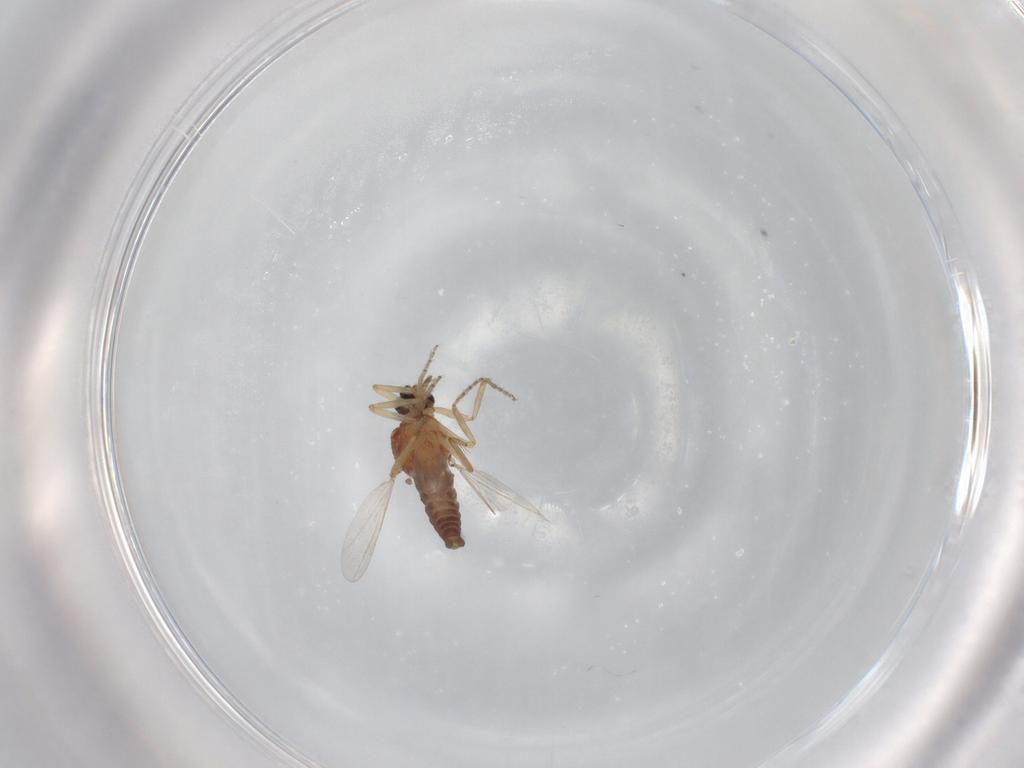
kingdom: Animalia
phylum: Arthropoda
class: Insecta
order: Diptera
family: Ceratopogonidae
